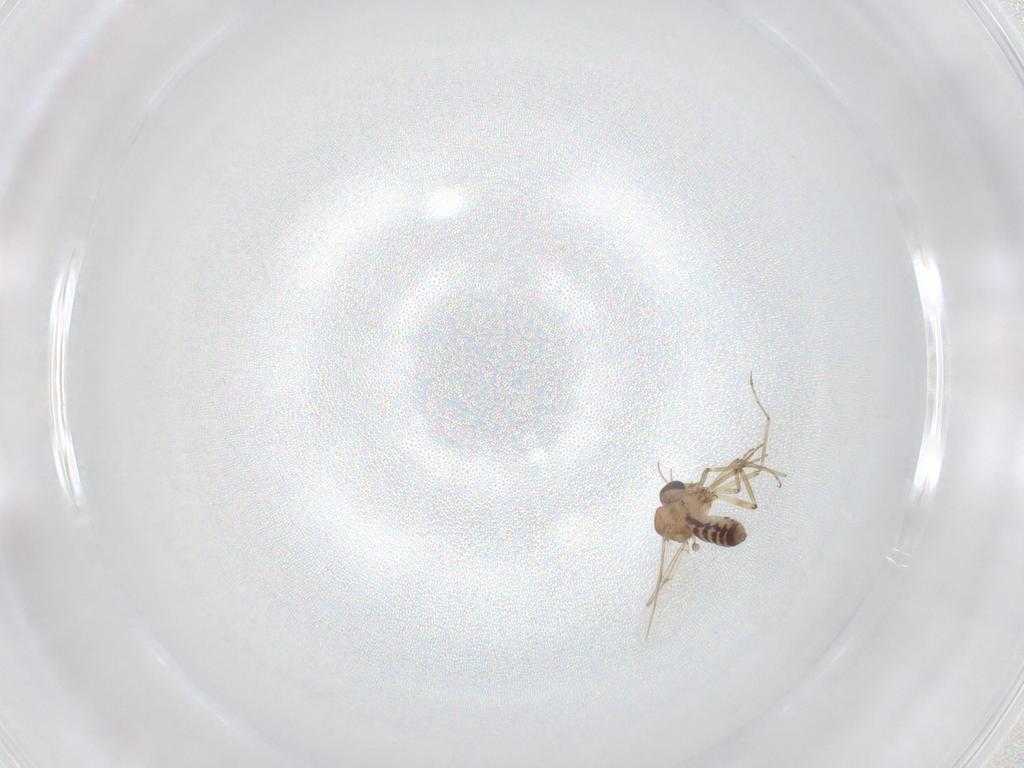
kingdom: Animalia
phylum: Arthropoda
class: Insecta
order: Diptera
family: Ceratopogonidae
